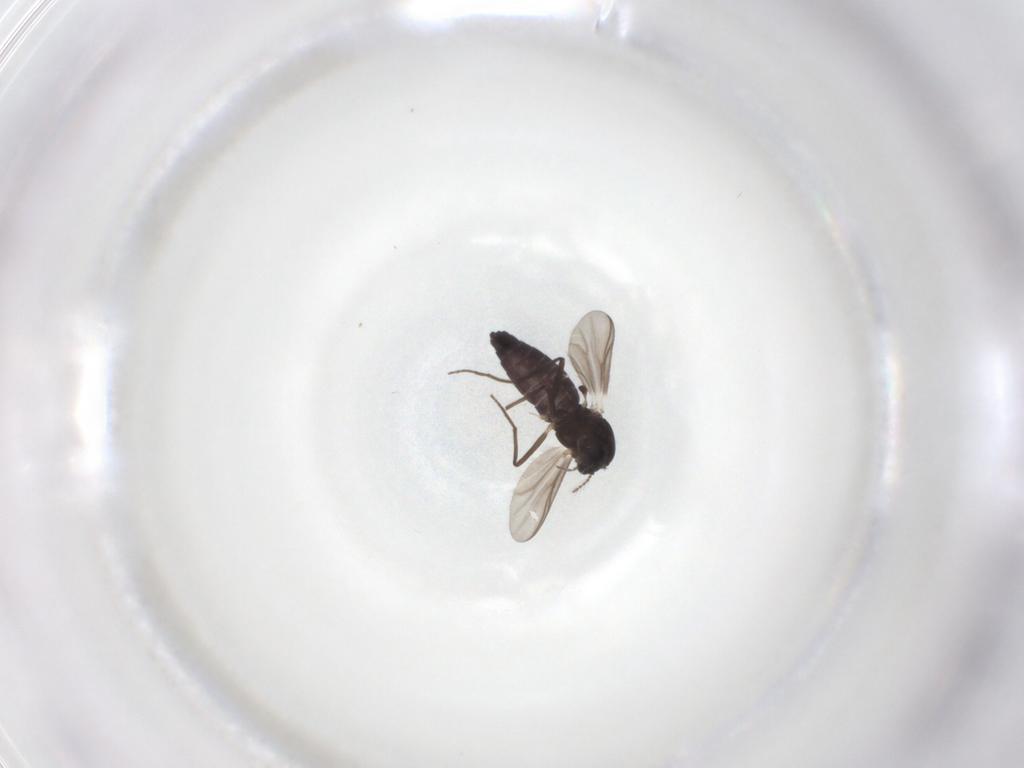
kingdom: Animalia
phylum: Arthropoda
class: Insecta
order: Diptera
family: Chironomidae
